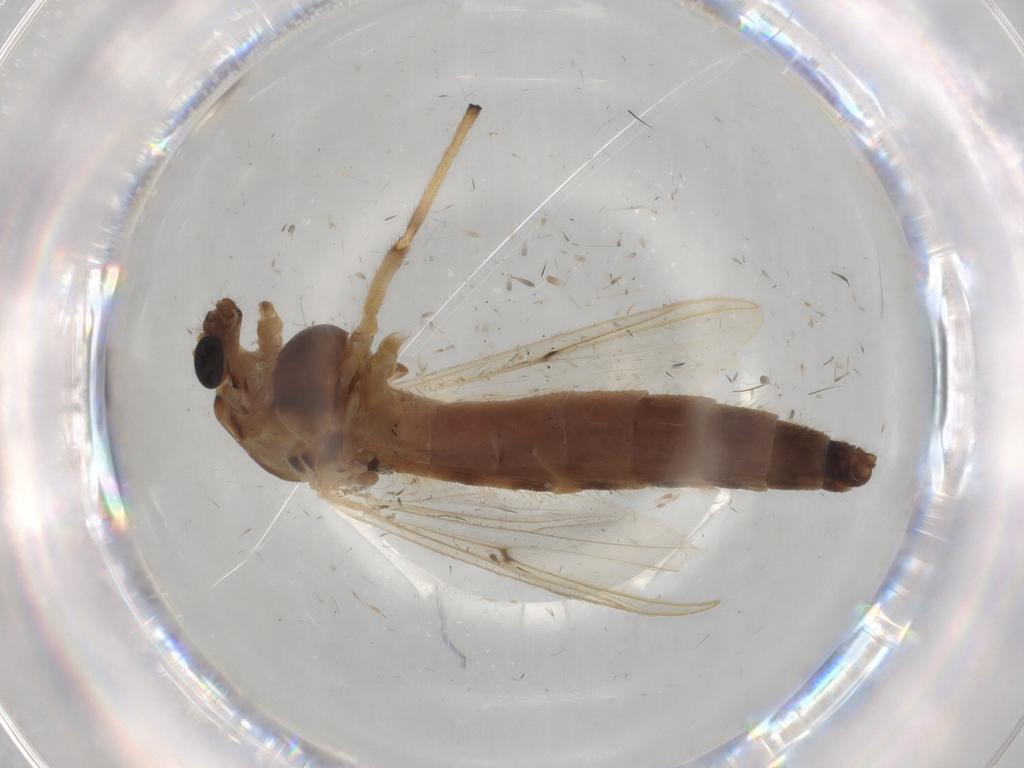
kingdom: Animalia
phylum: Arthropoda
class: Insecta
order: Diptera
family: Chironomidae
